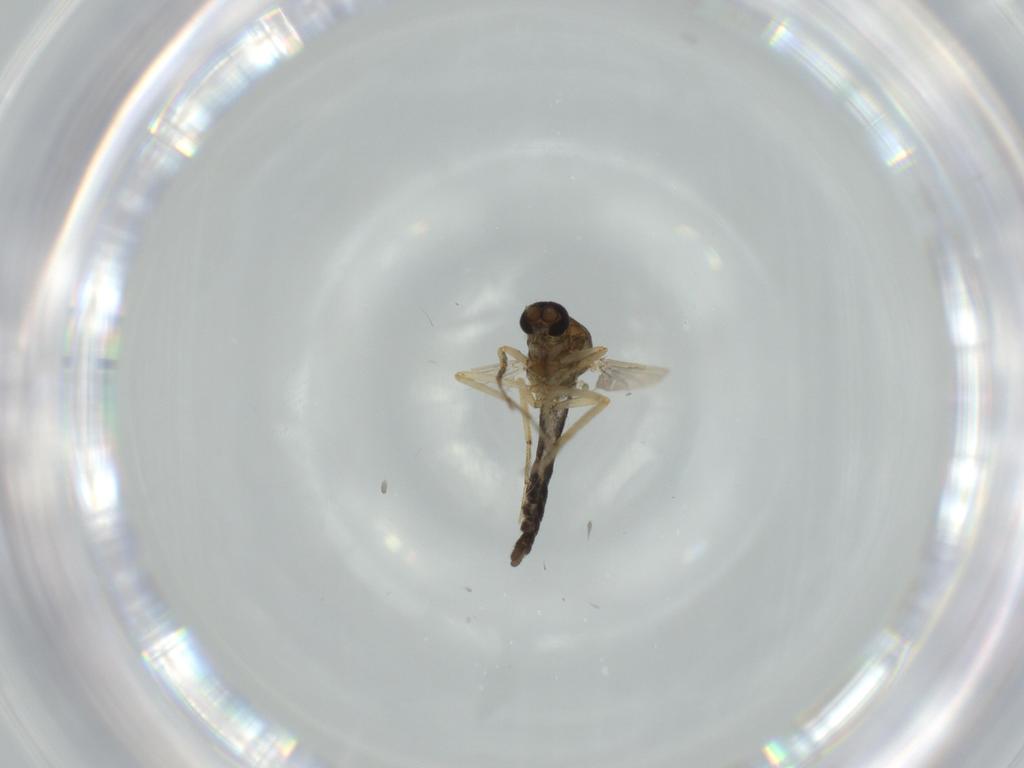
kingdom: Animalia
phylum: Arthropoda
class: Insecta
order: Diptera
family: Ceratopogonidae
